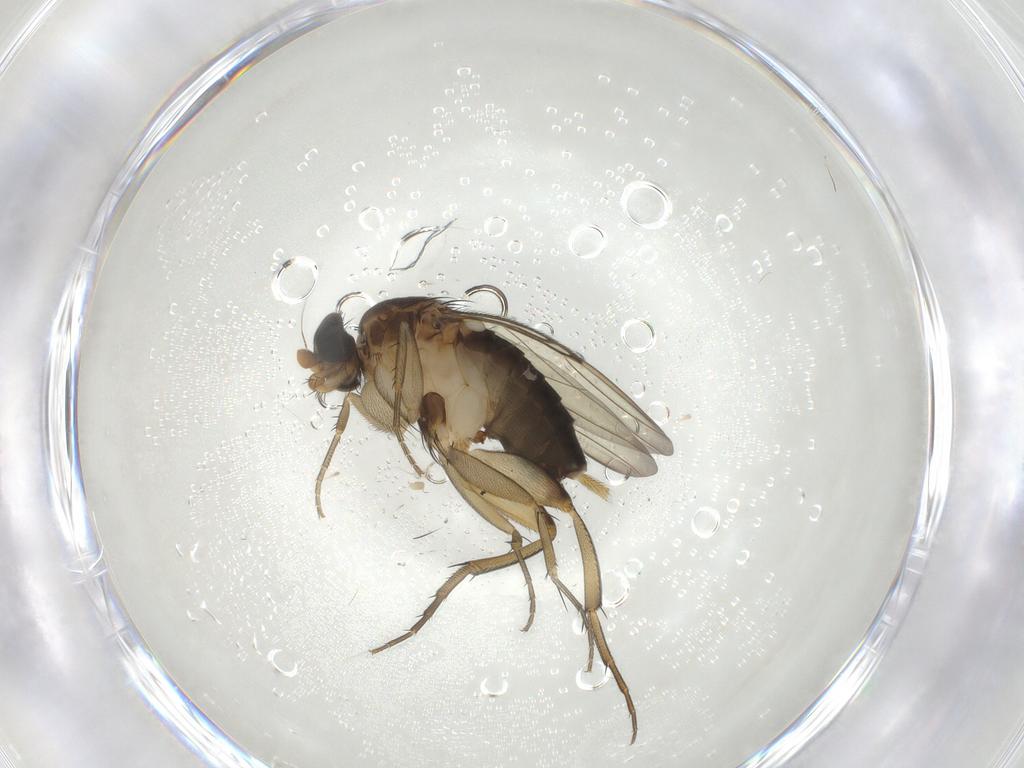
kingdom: Animalia
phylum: Arthropoda
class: Insecta
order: Diptera
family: Phoridae
